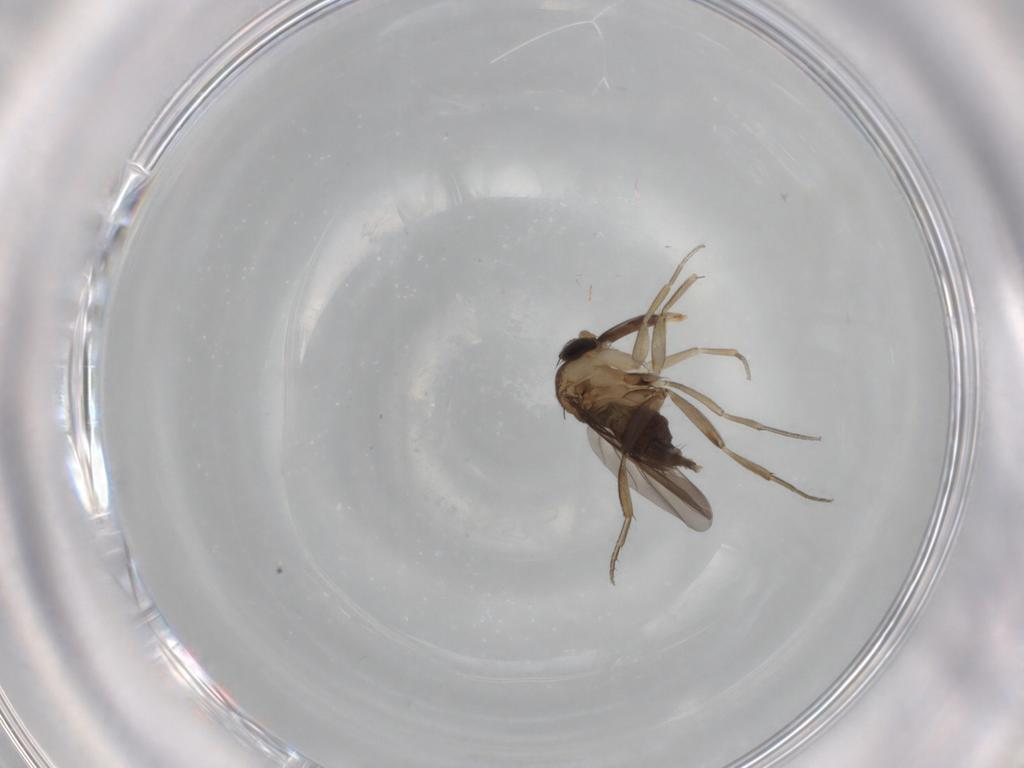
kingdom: Animalia
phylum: Arthropoda
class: Insecta
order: Diptera
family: Phoridae
